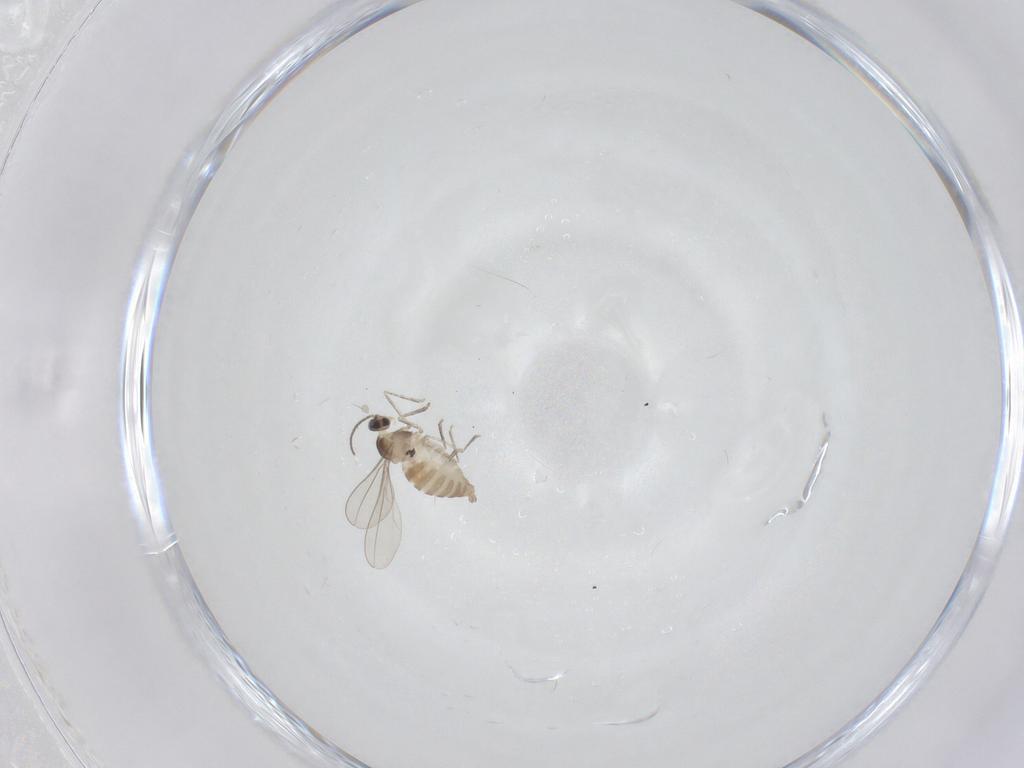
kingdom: Animalia
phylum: Arthropoda
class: Insecta
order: Diptera
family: Cecidomyiidae
